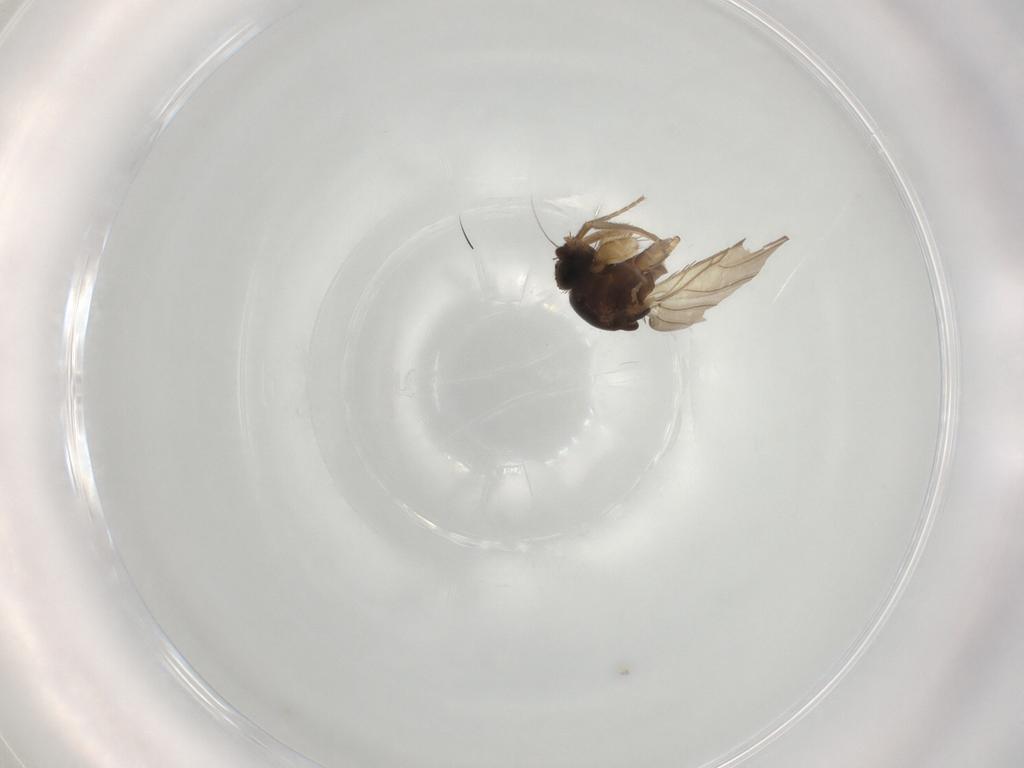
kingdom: Animalia
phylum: Arthropoda
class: Insecta
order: Diptera
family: Phoridae
